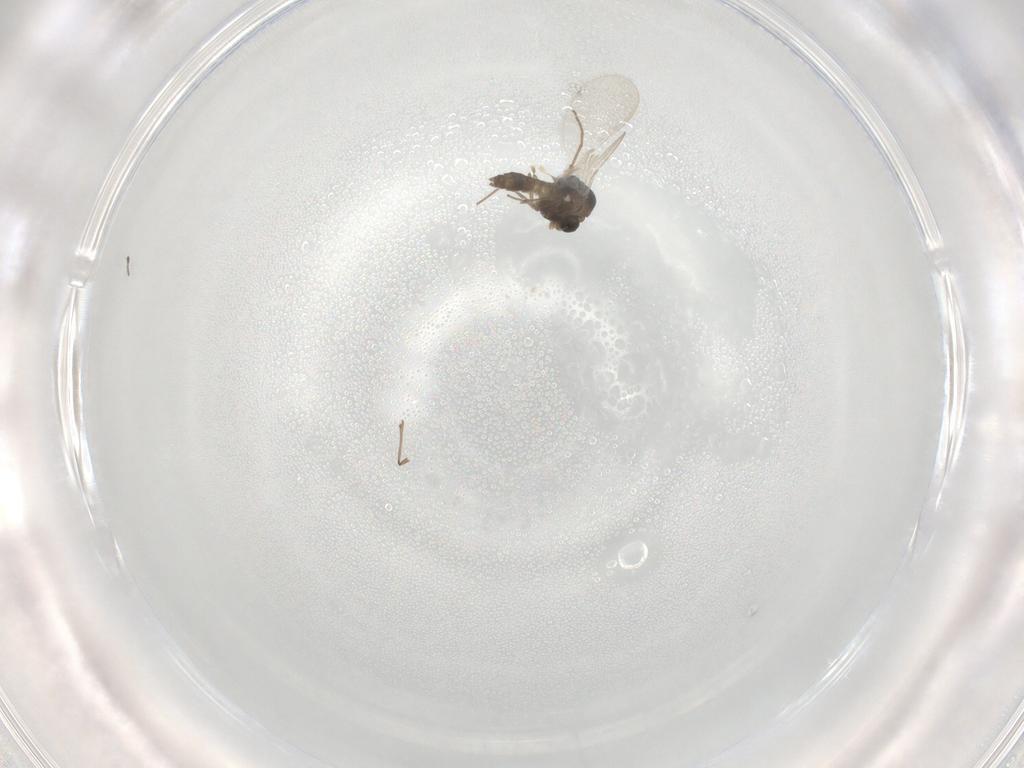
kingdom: Animalia
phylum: Arthropoda
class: Insecta
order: Diptera
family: Chironomidae
